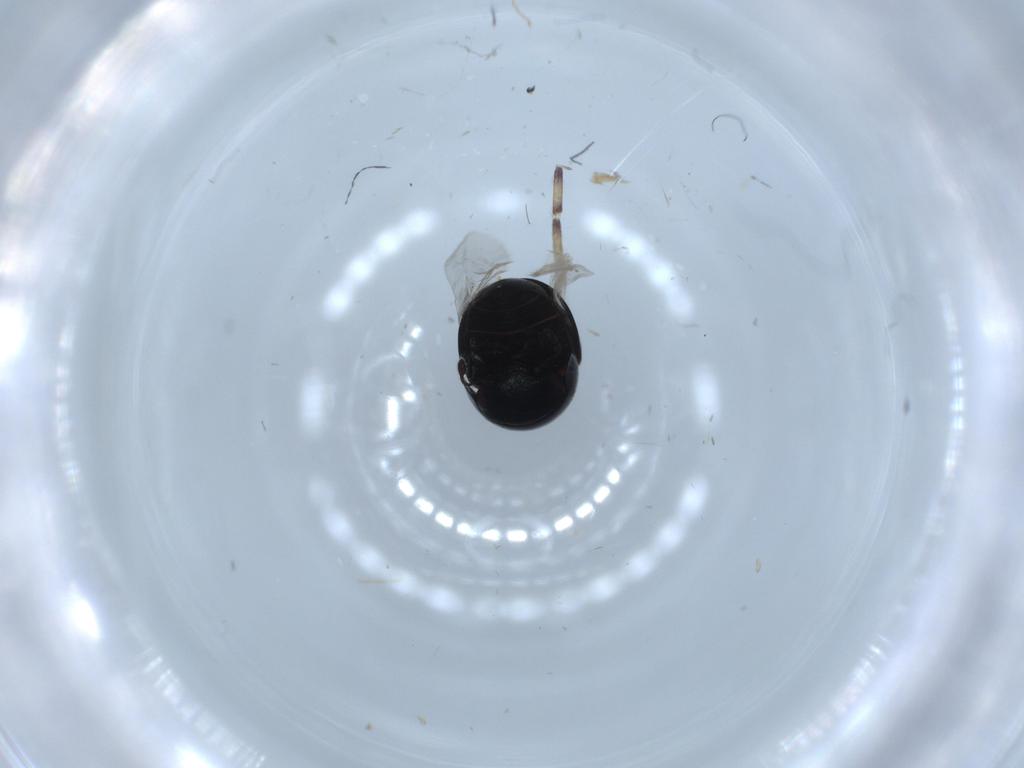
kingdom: Animalia
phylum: Arthropoda
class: Insecta
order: Coleoptera
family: Cybocephalidae
